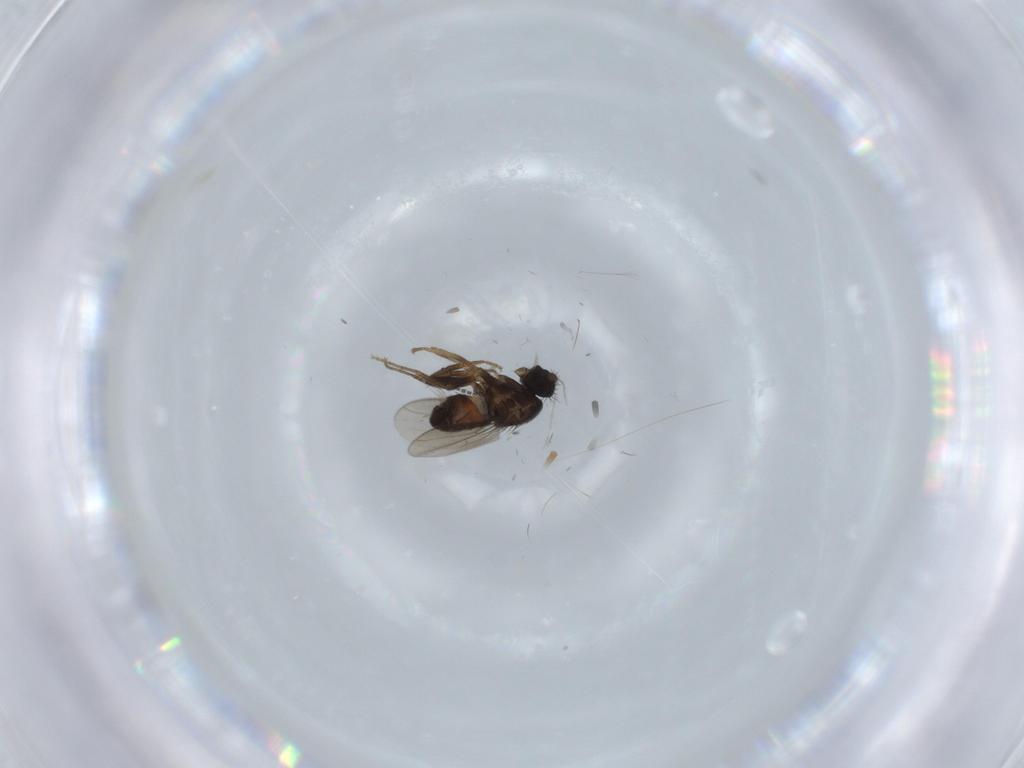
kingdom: Animalia
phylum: Arthropoda
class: Insecta
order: Diptera
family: Sphaeroceridae
